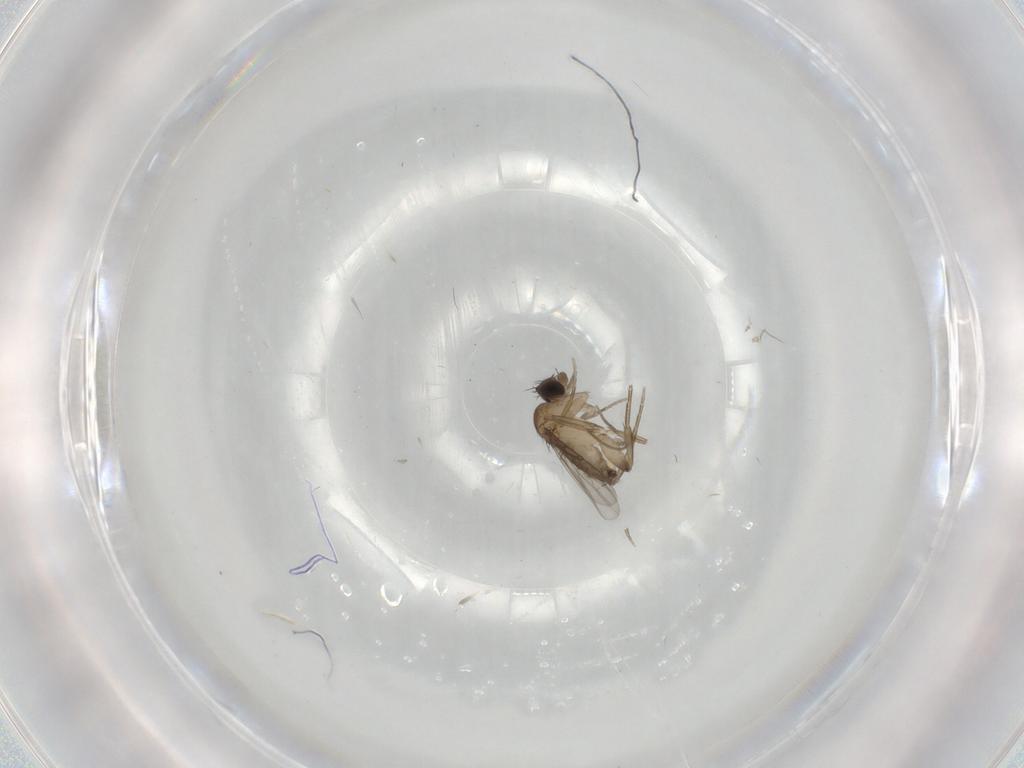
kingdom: Animalia
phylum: Arthropoda
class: Insecta
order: Diptera
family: Phoridae
